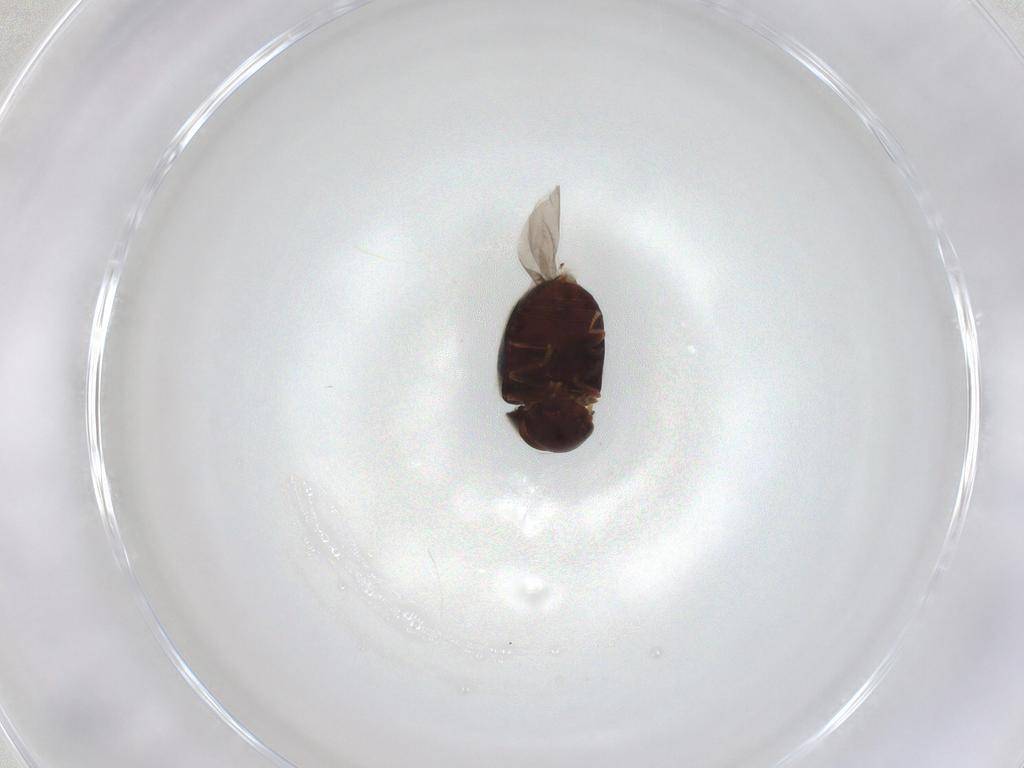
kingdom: Animalia
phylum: Arthropoda
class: Insecta
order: Coleoptera
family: Ptinidae
